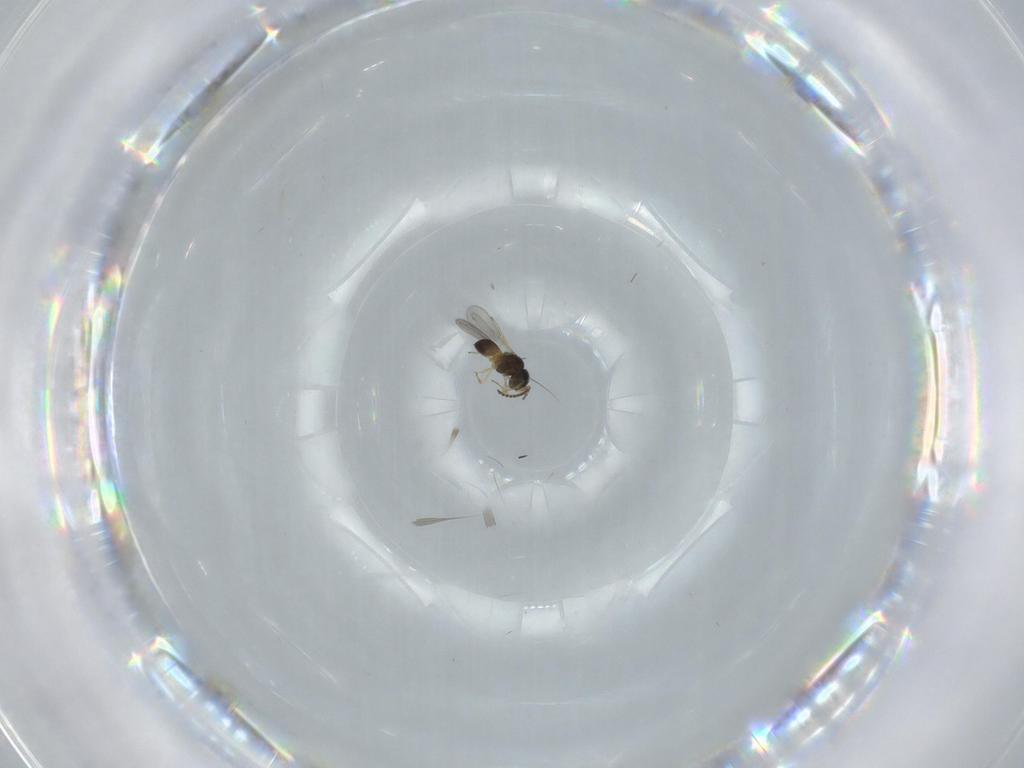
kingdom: Animalia
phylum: Arthropoda
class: Insecta
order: Hymenoptera
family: Scelionidae
